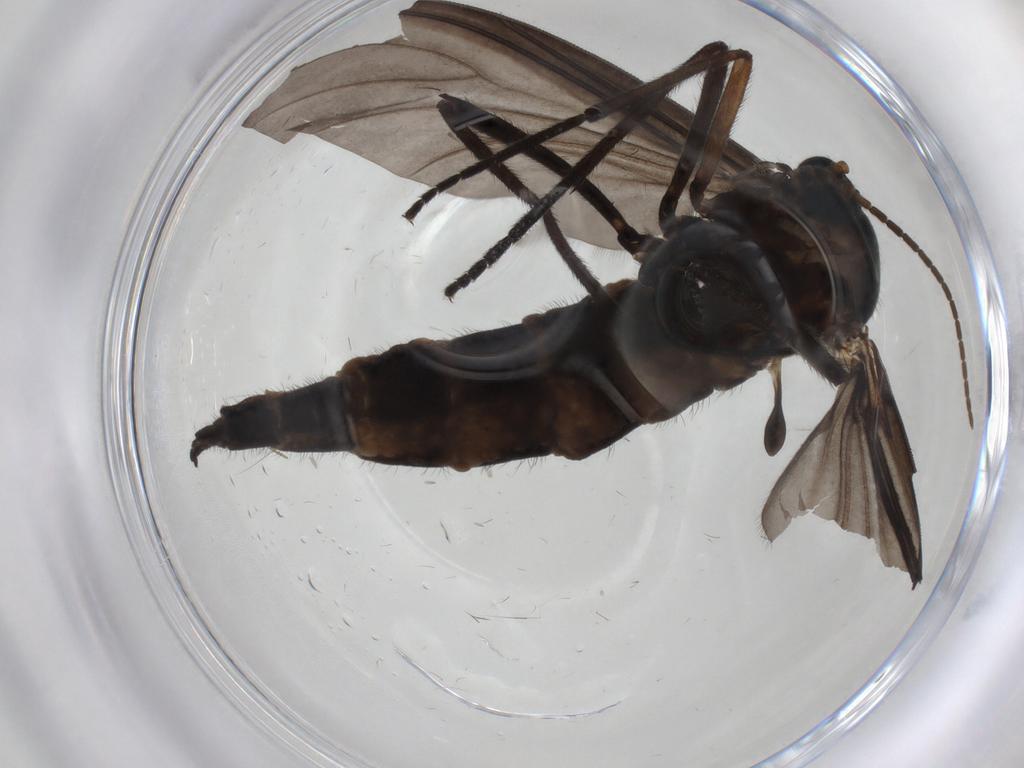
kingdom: Animalia
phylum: Arthropoda
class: Insecta
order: Diptera
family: Sciaridae
